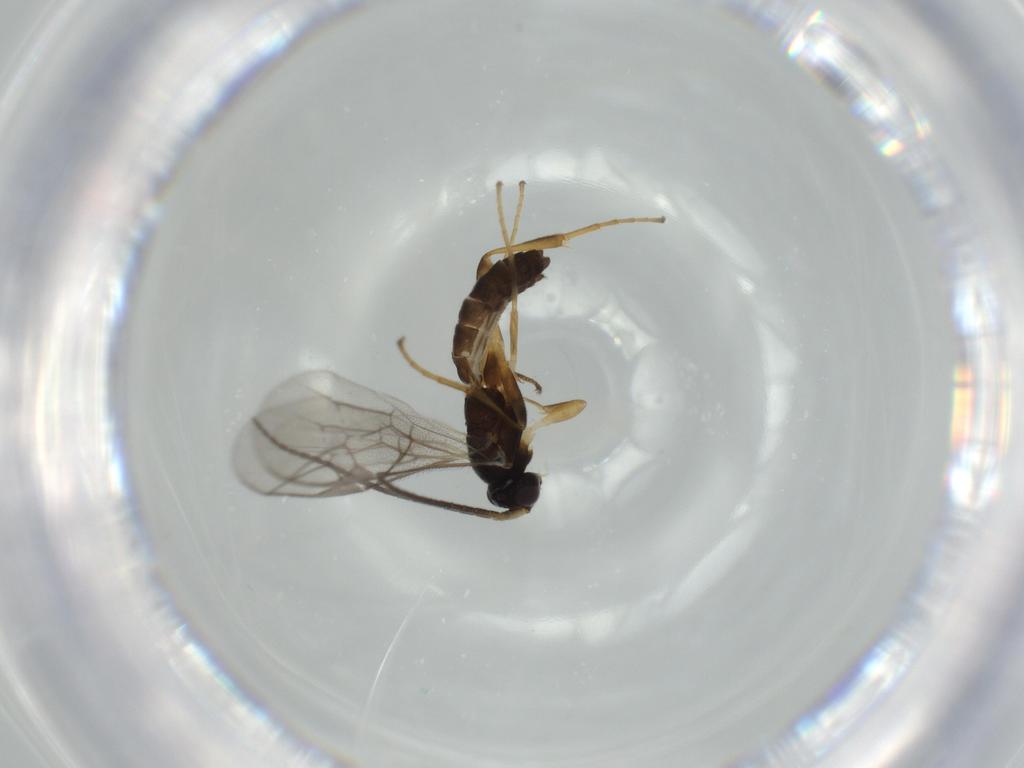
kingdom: Animalia
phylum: Arthropoda
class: Insecta
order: Hymenoptera
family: Ichneumonidae
